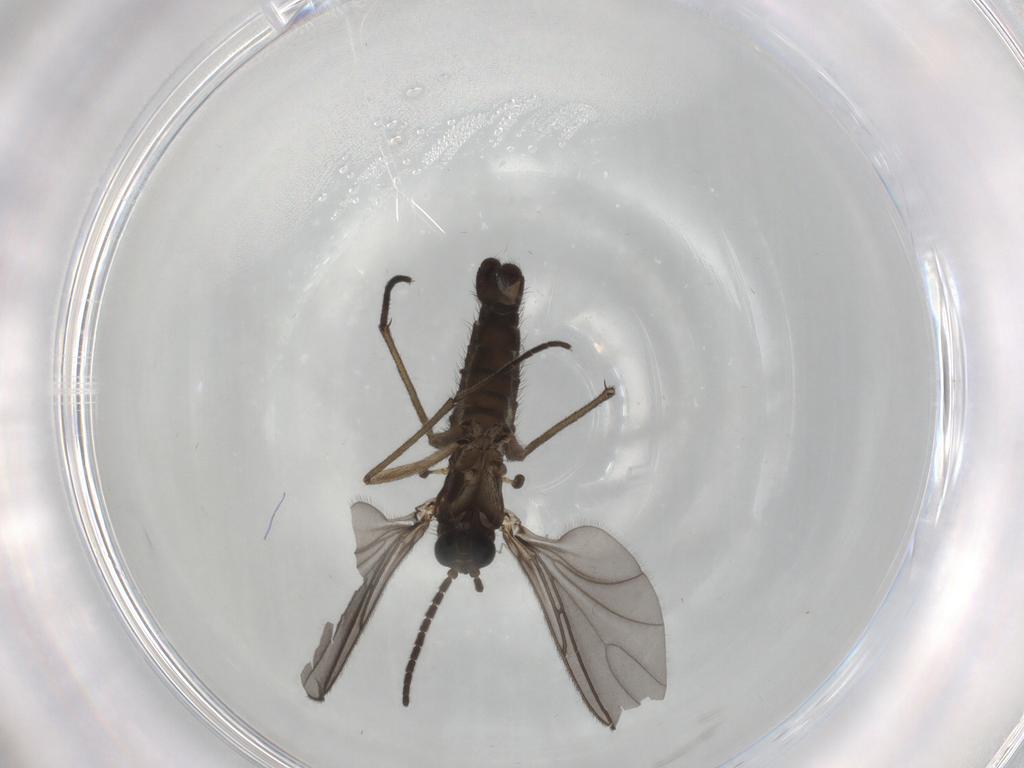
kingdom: Animalia
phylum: Arthropoda
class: Insecta
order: Diptera
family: Sciaridae
